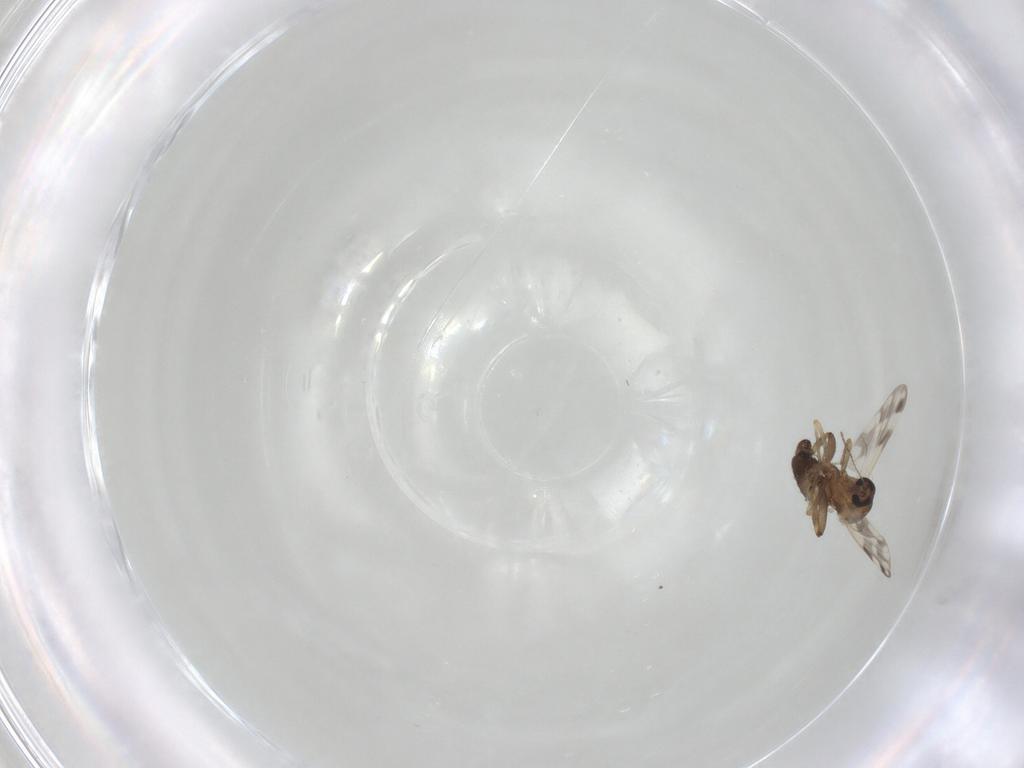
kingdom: Animalia
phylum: Arthropoda
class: Insecta
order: Diptera
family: Ceratopogonidae
